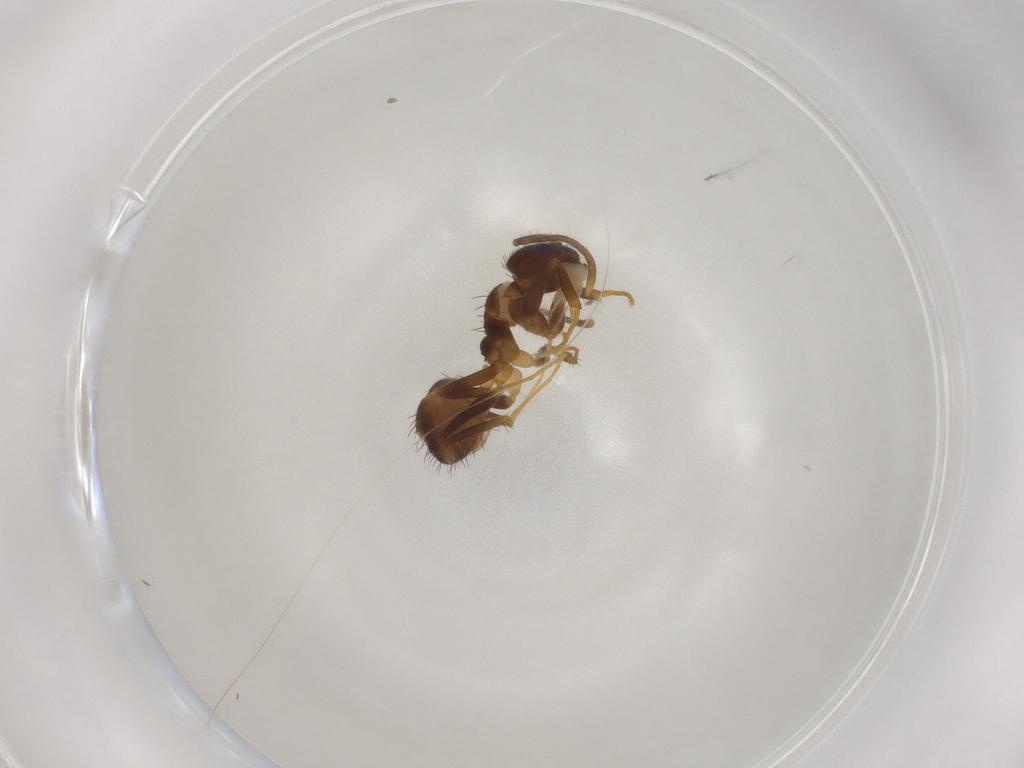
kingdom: Animalia
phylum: Arthropoda
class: Insecta
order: Hymenoptera
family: Formicidae
